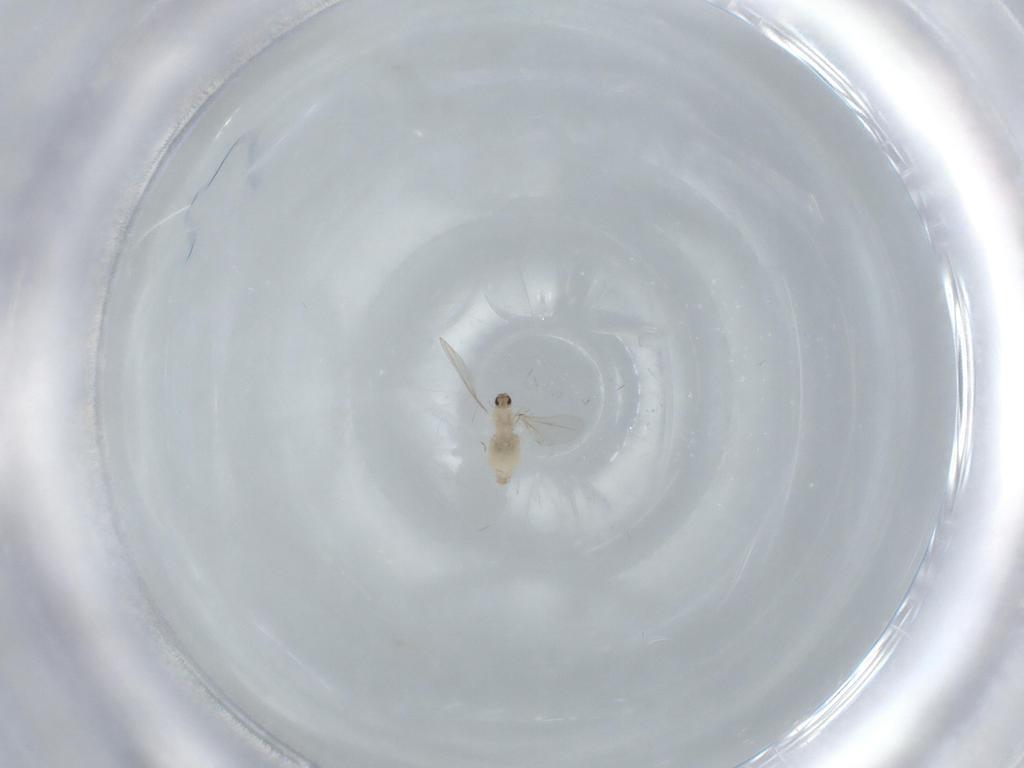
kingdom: Animalia
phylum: Arthropoda
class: Insecta
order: Diptera
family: Cecidomyiidae
